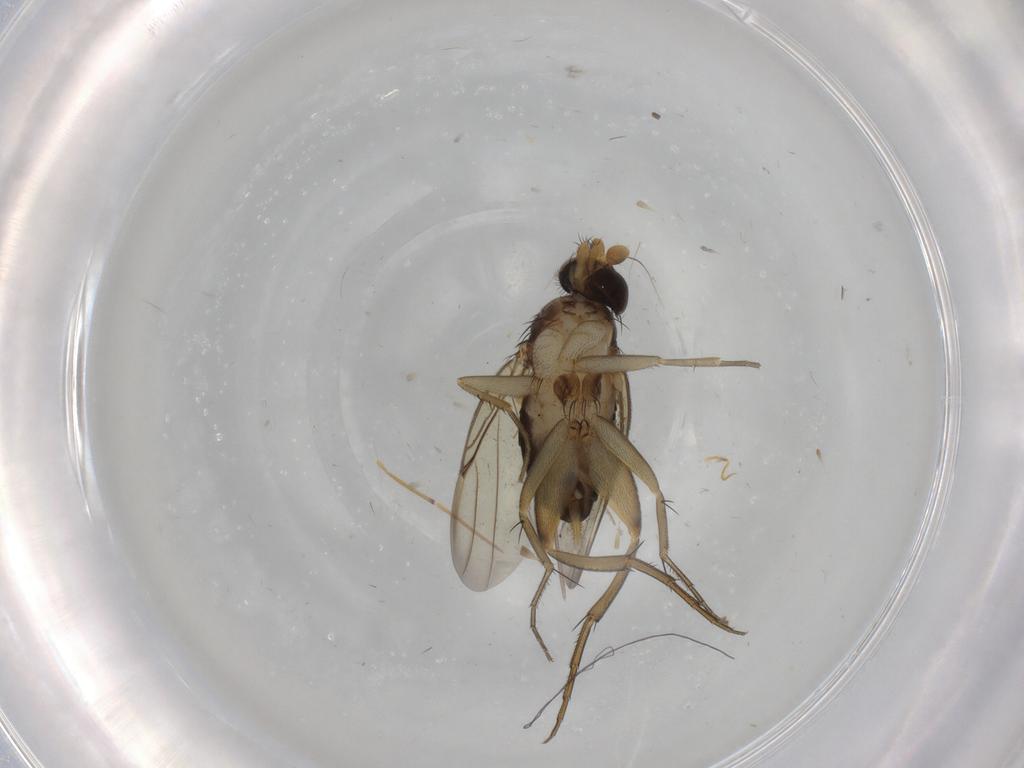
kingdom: Animalia
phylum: Arthropoda
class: Insecta
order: Diptera
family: Phoridae
